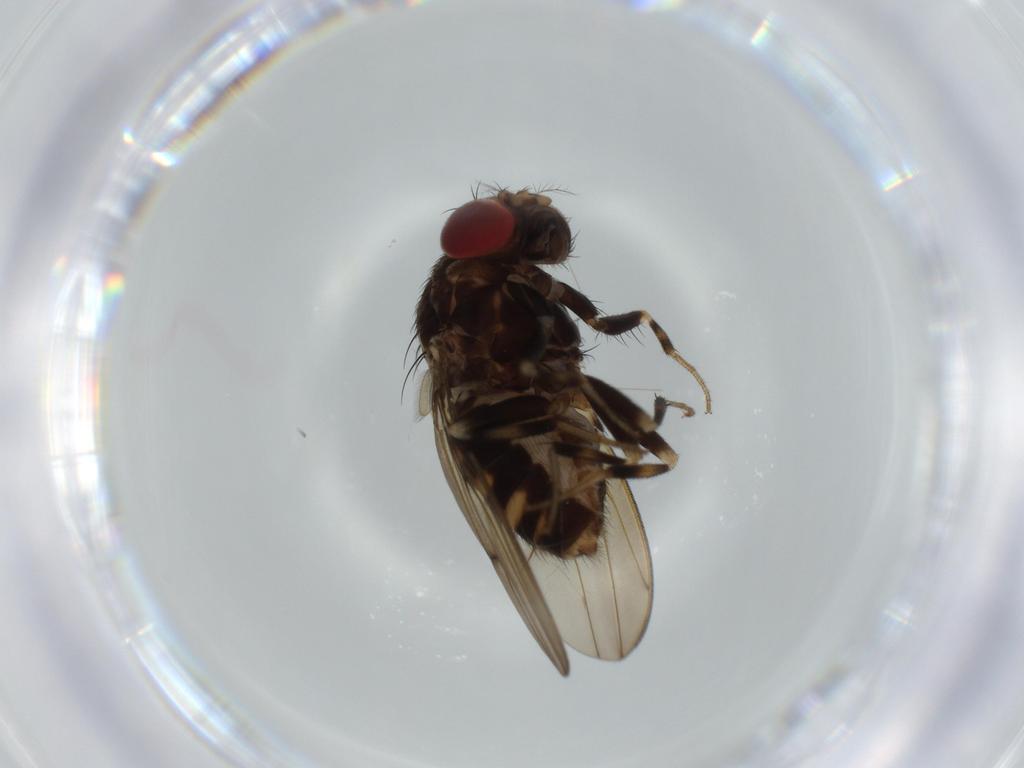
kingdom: Animalia
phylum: Arthropoda
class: Insecta
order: Diptera
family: Drosophilidae
